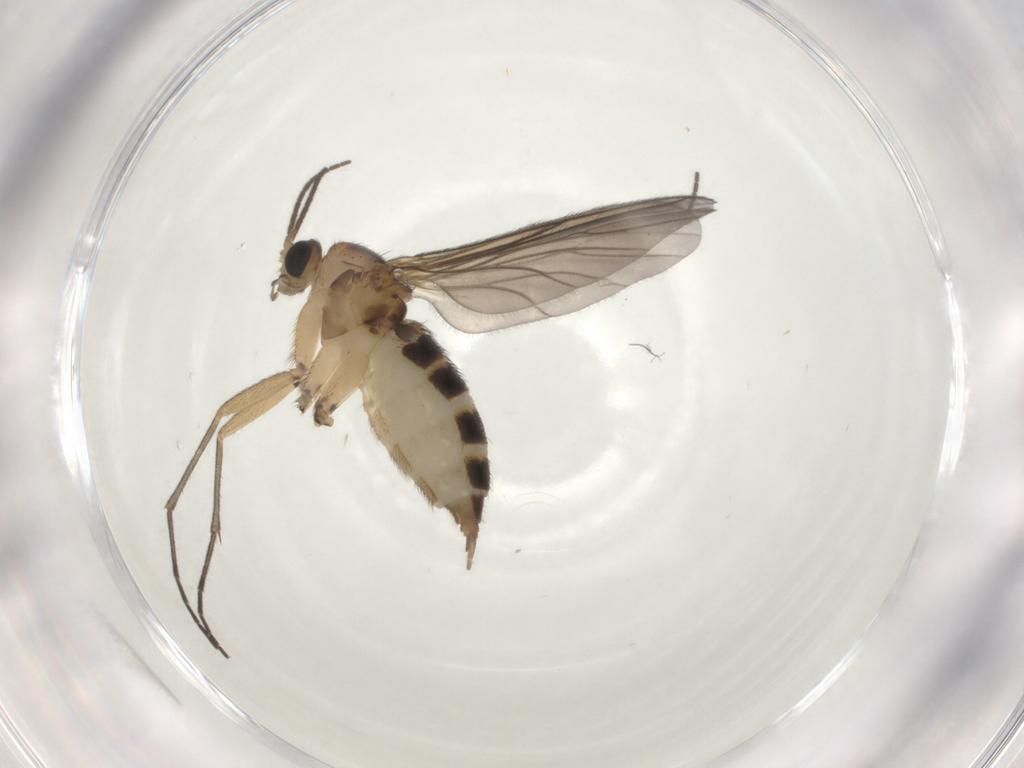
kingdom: Animalia
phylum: Arthropoda
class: Insecta
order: Diptera
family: Sciaridae
